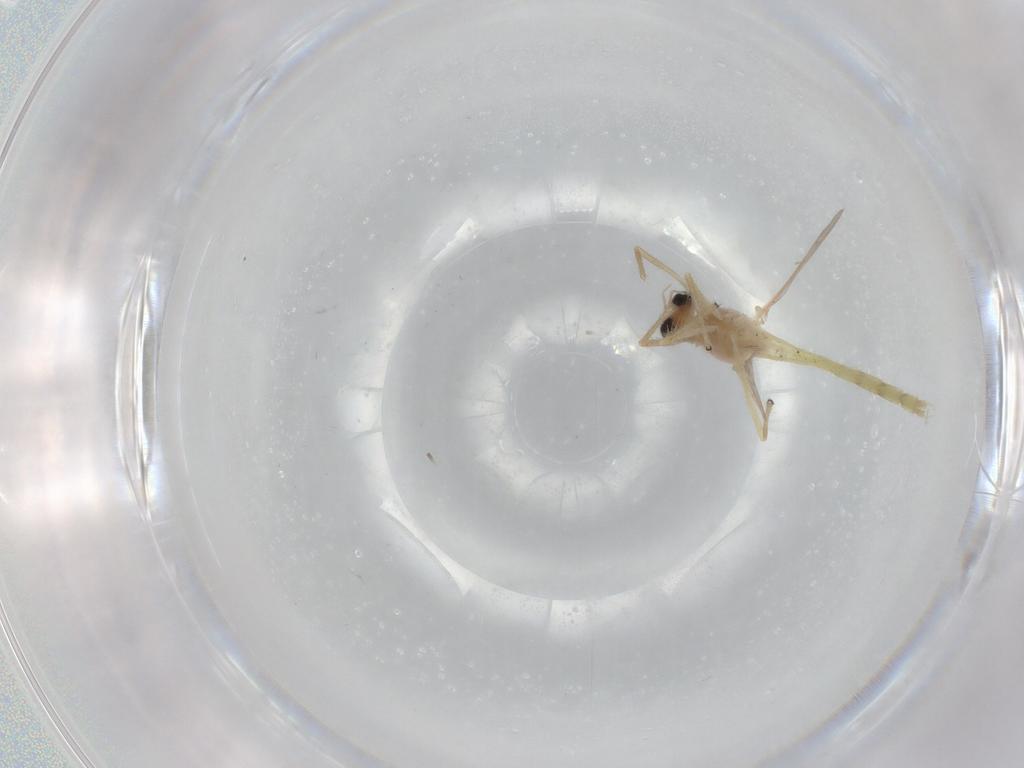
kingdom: Animalia
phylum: Arthropoda
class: Insecta
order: Diptera
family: Chironomidae
